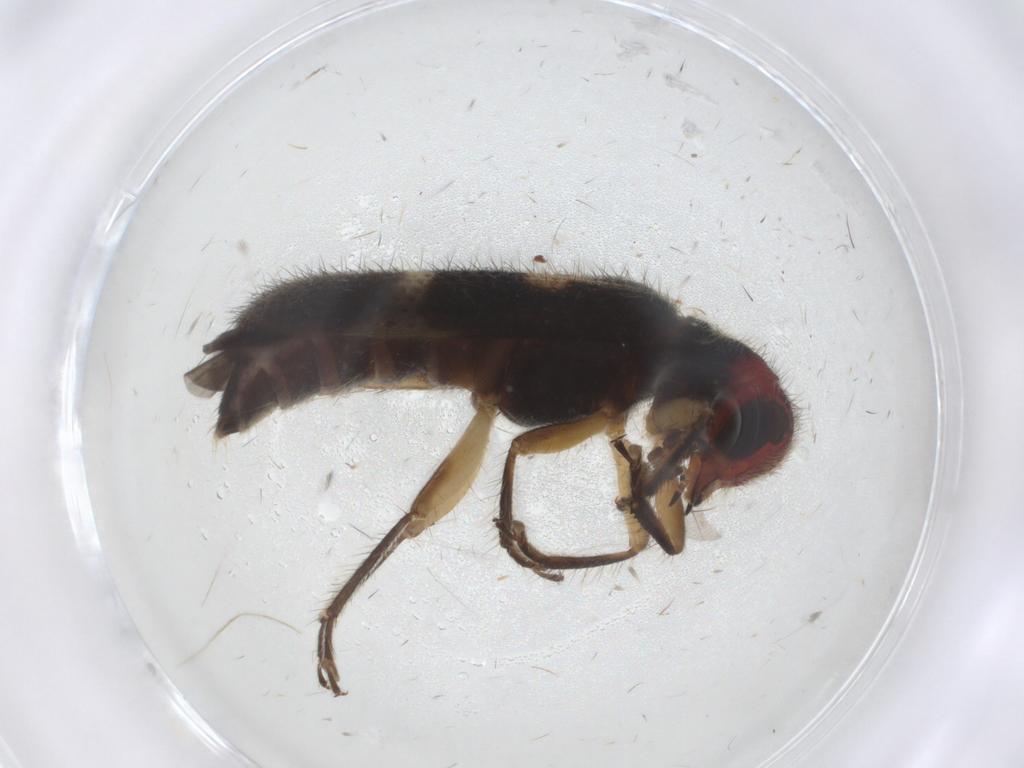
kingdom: Animalia
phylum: Arthropoda
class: Insecta
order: Coleoptera
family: Cleridae
